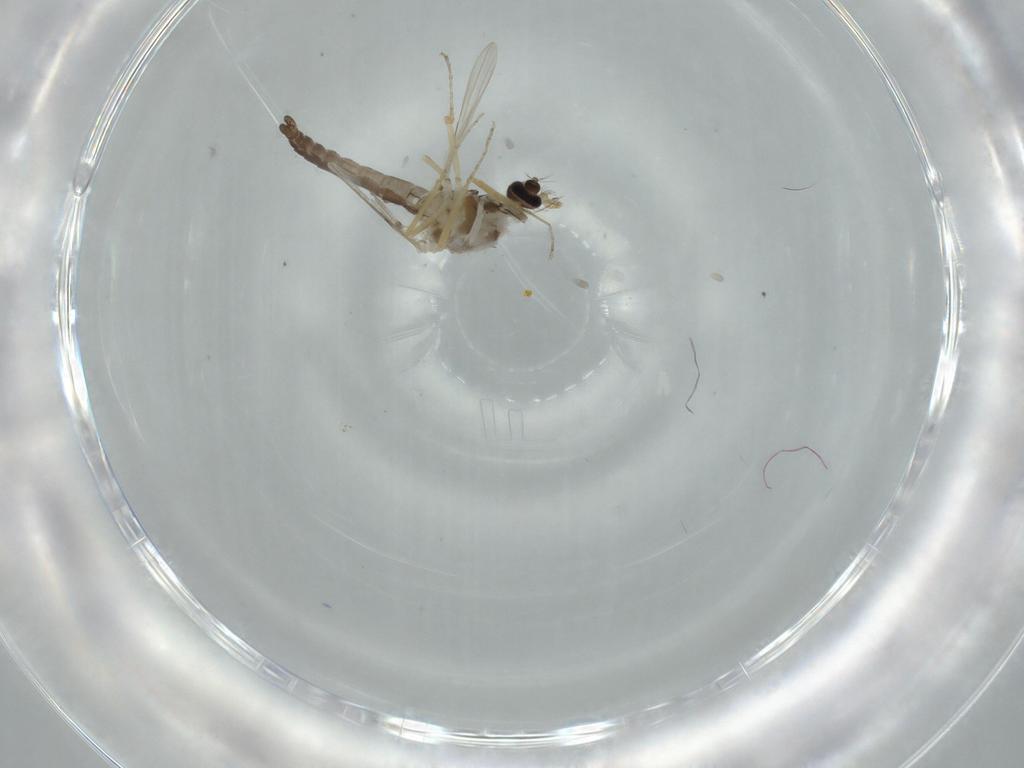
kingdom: Animalia
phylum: Arthropoda
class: Insecta
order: Diptera
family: Ceratopogonidae
